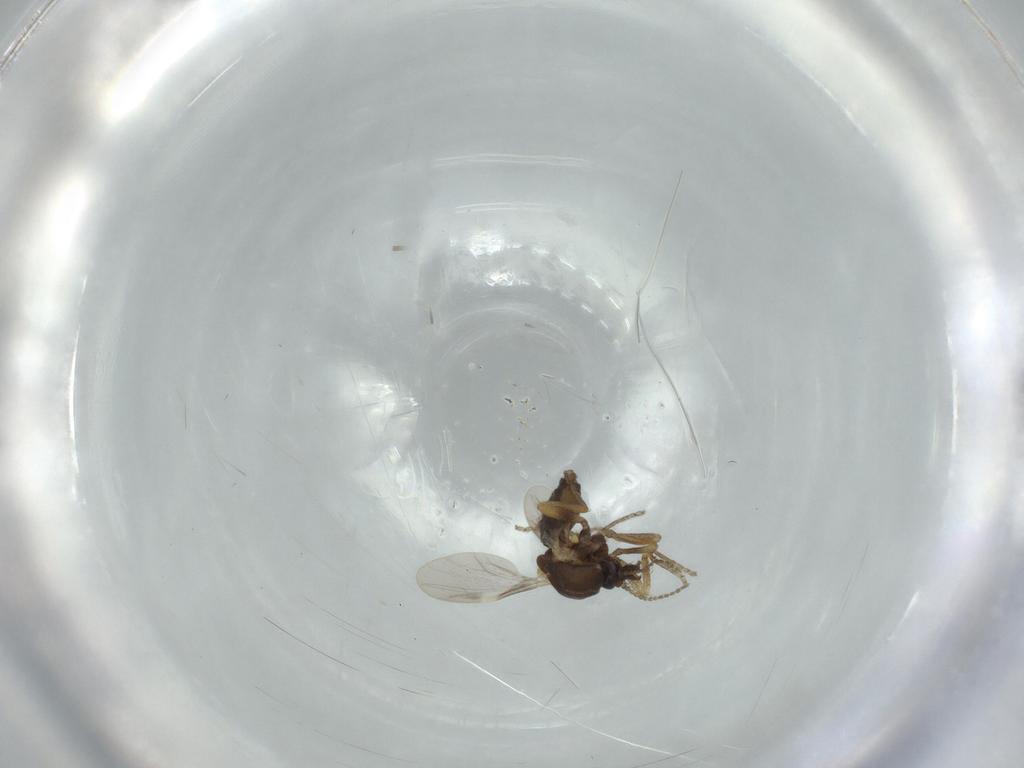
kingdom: Animalia
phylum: Arthropoda
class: Insecta
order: Diptera
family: Ceratopogonidae
